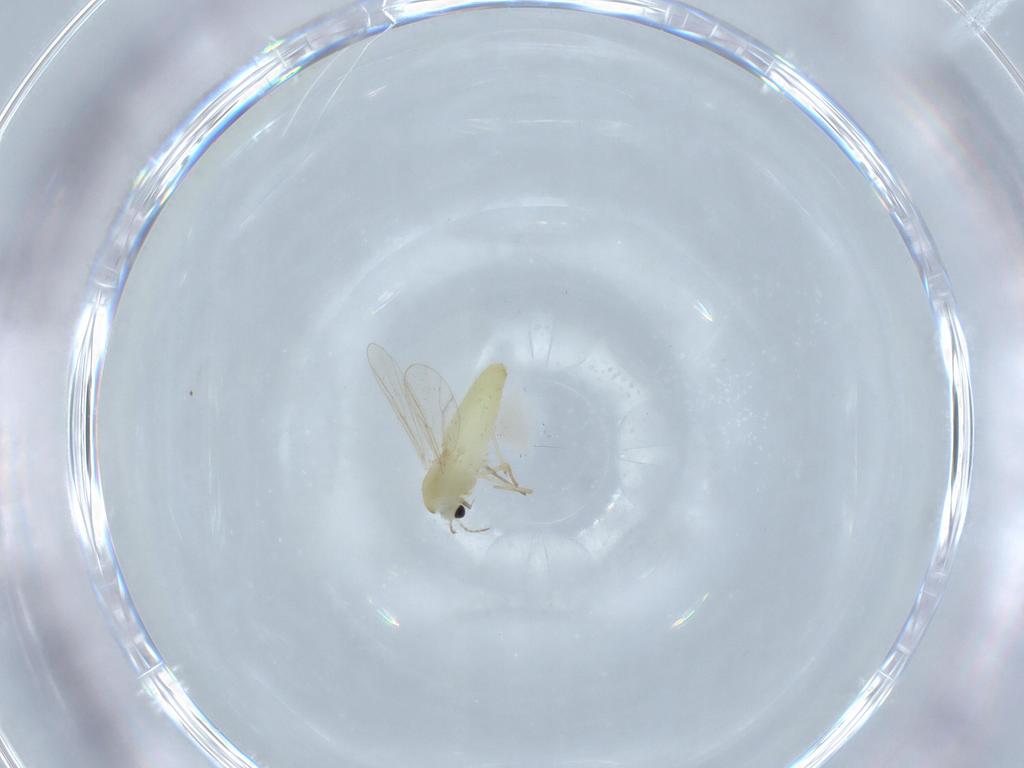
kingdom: Animalia
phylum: Arthropoda
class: Insecta
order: Diptera
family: Chironomidae
